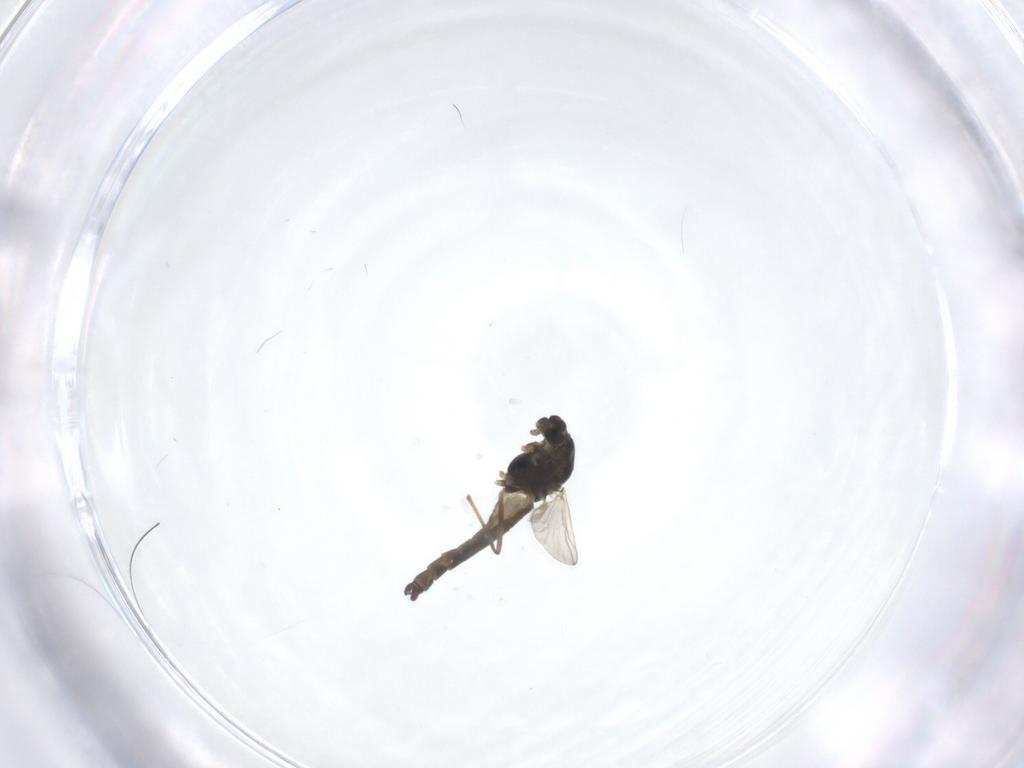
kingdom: Animalia
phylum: Arthropoda
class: Insecta
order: Diptera
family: Chironomidae
